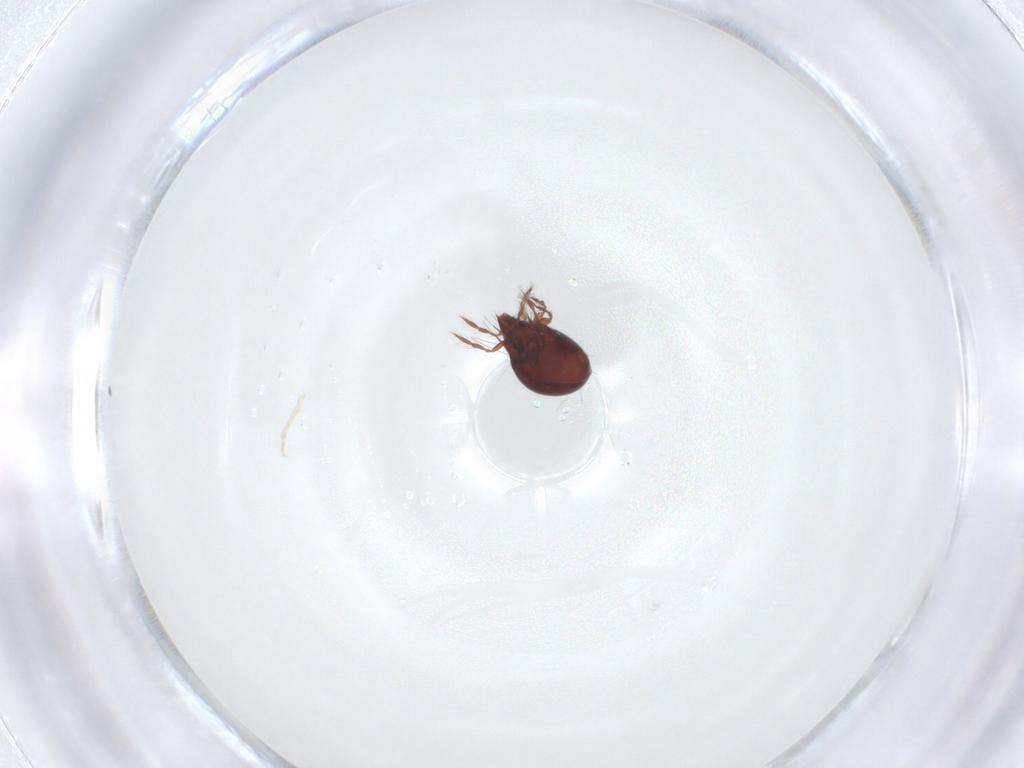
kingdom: Animalia
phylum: Arthropoda
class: Arachnida
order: Sarcoptiformes
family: Ceratoppiidae
